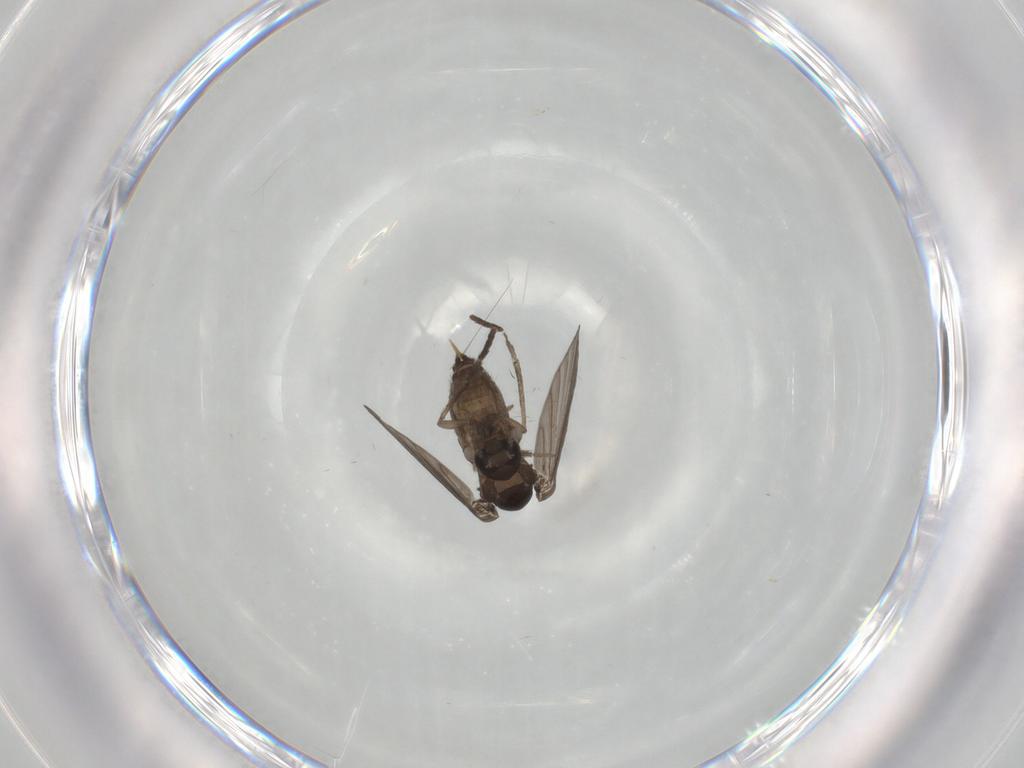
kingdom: Animalia
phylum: Arthropoda
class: Insecta
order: Diptera
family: Psychodidae
